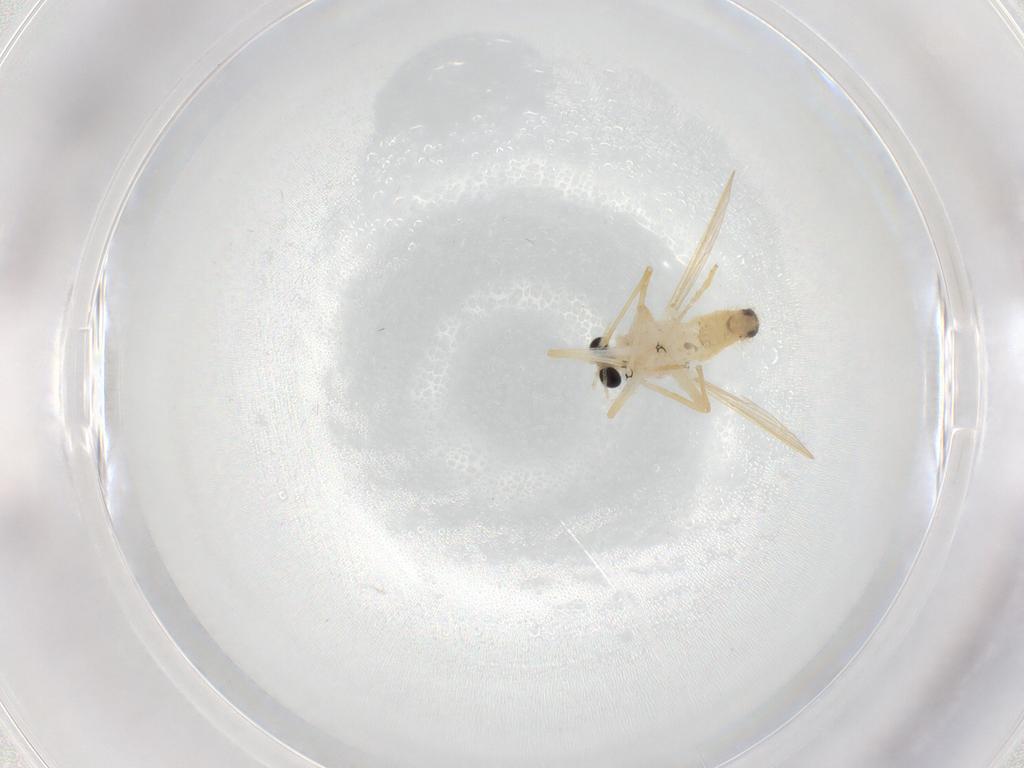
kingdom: Animalia
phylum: Arthropoda
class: Insecta
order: Diptera
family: Chironomidae
